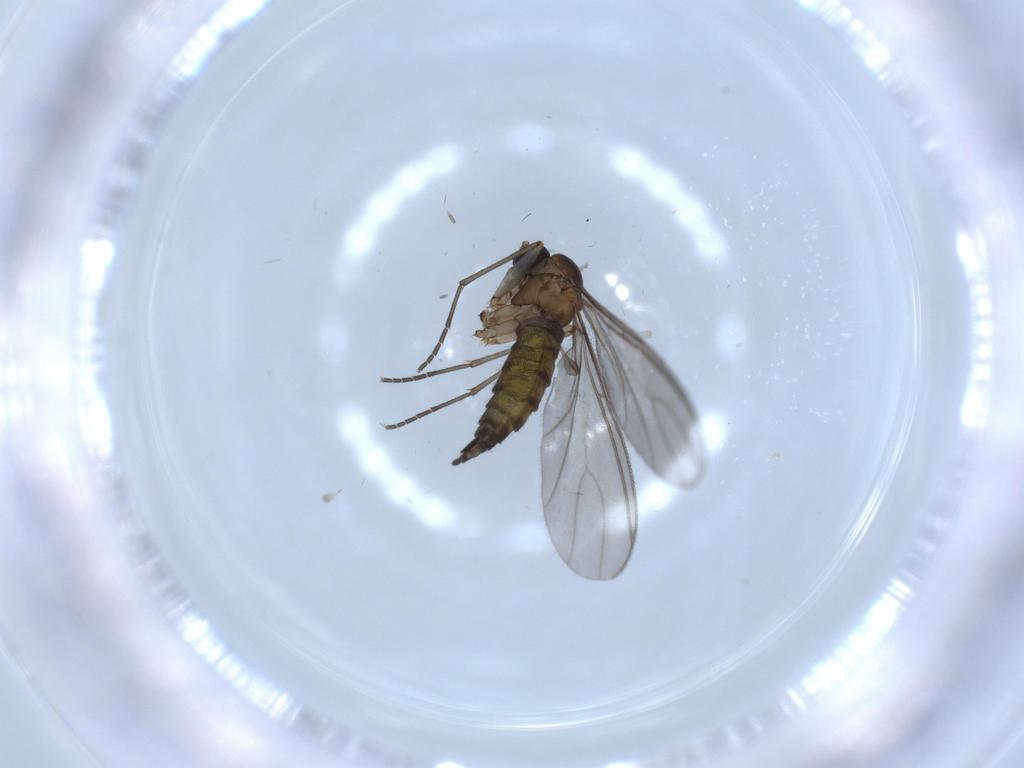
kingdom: Animalia
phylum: Arthropoda
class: Insecta
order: Diptera
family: Sciaridae
